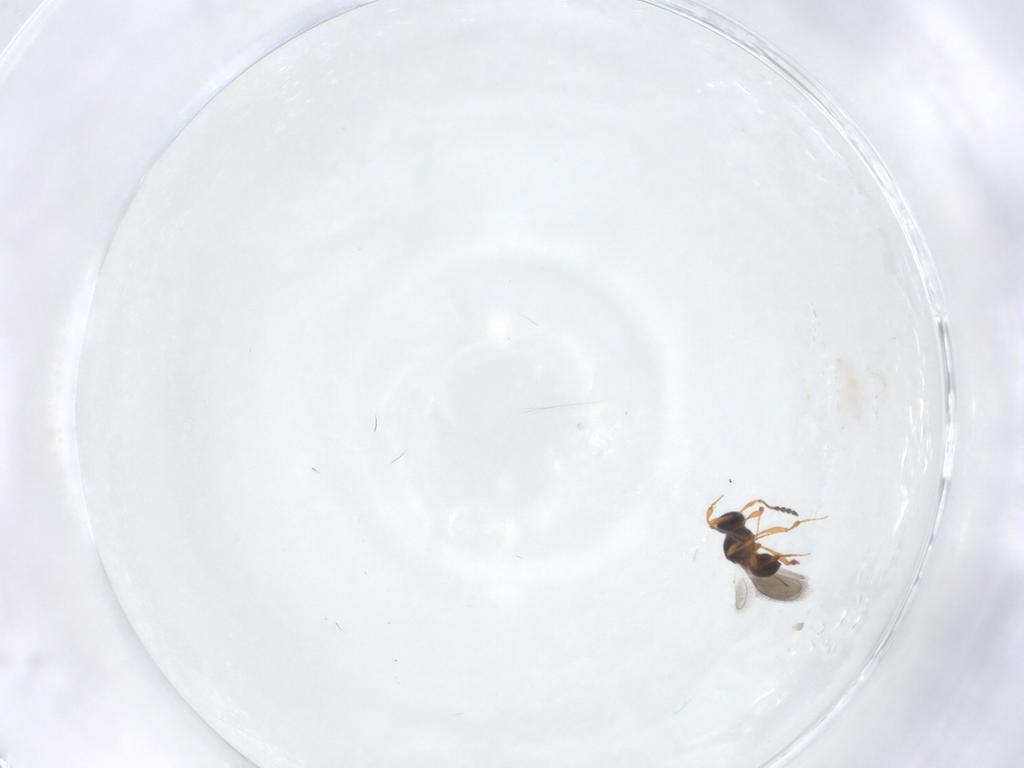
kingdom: Animalia
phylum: Arthropoda
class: Insecta
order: Hymenoptera
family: Platygastridae
